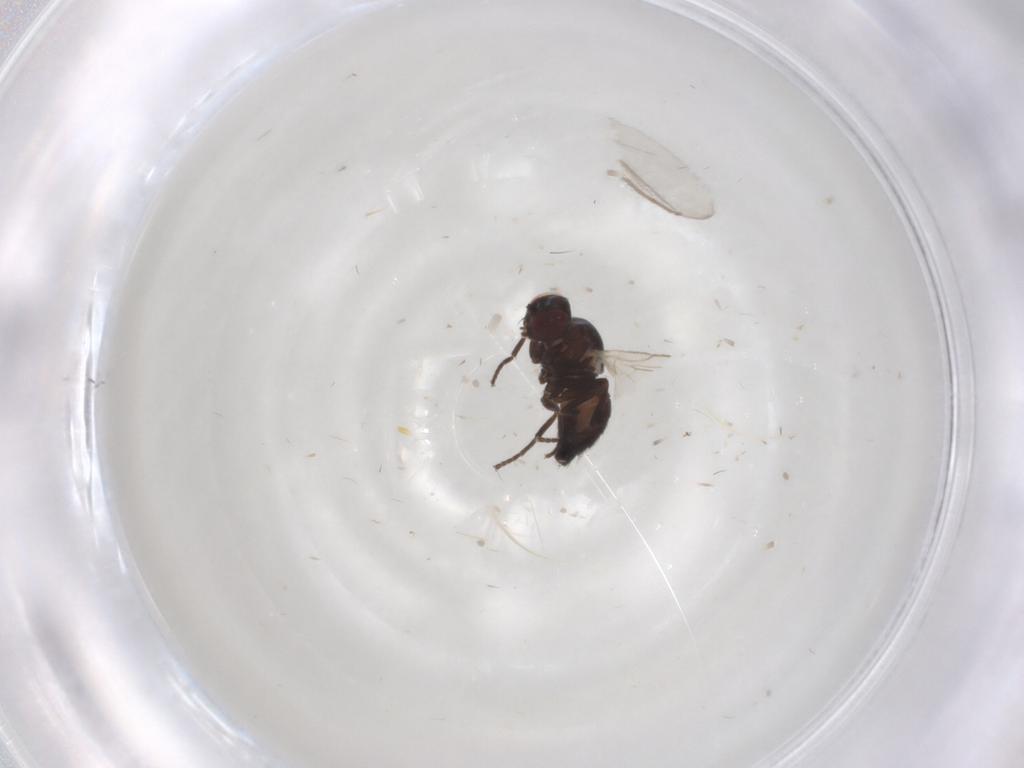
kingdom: Animalia
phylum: Arthropoda
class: Insecta
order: Diptera
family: Agromyzidae
